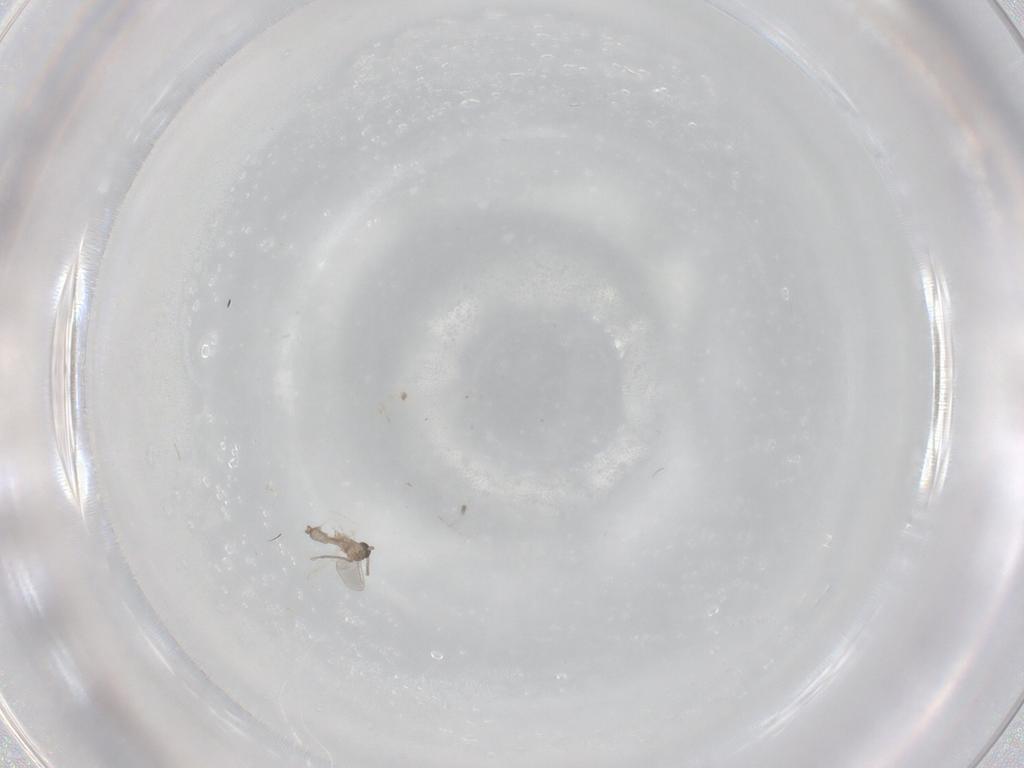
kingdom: Animalia
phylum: Arthropoda
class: Insecta
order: Diptera
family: Cecidomyiidae
